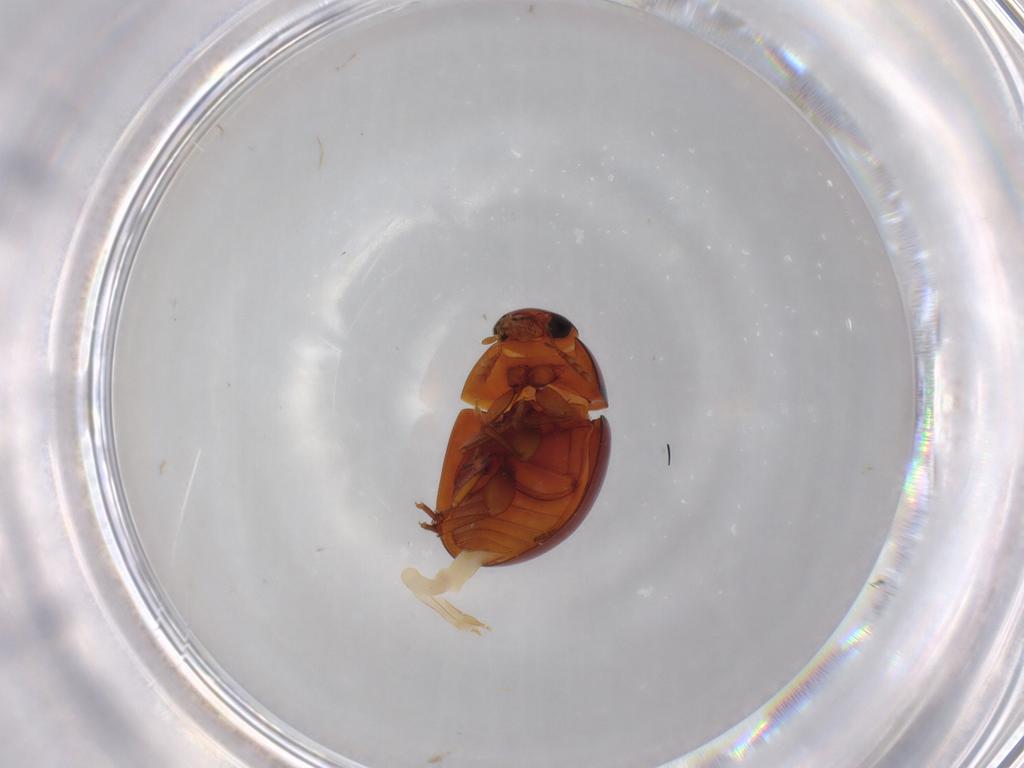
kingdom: Animalia
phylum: Arthropoda
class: Insecta
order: Coleoptera
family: Phalacridae
